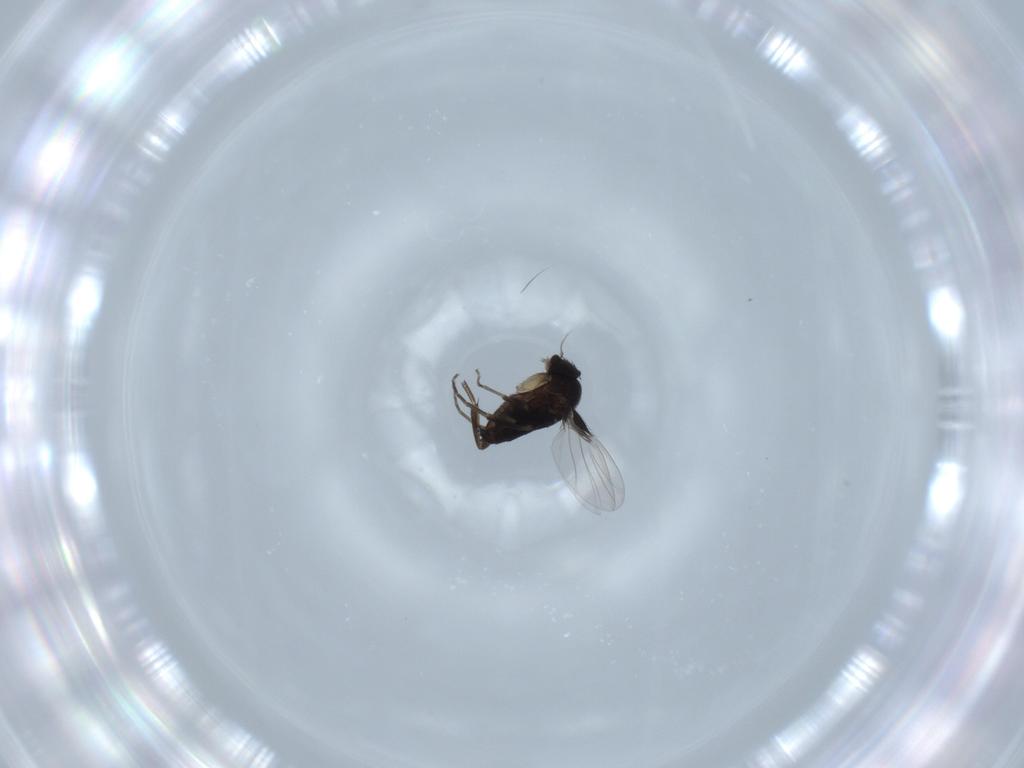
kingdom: Animalia
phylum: Arthropoda
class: Insecta
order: Diptera
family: Phoridae
